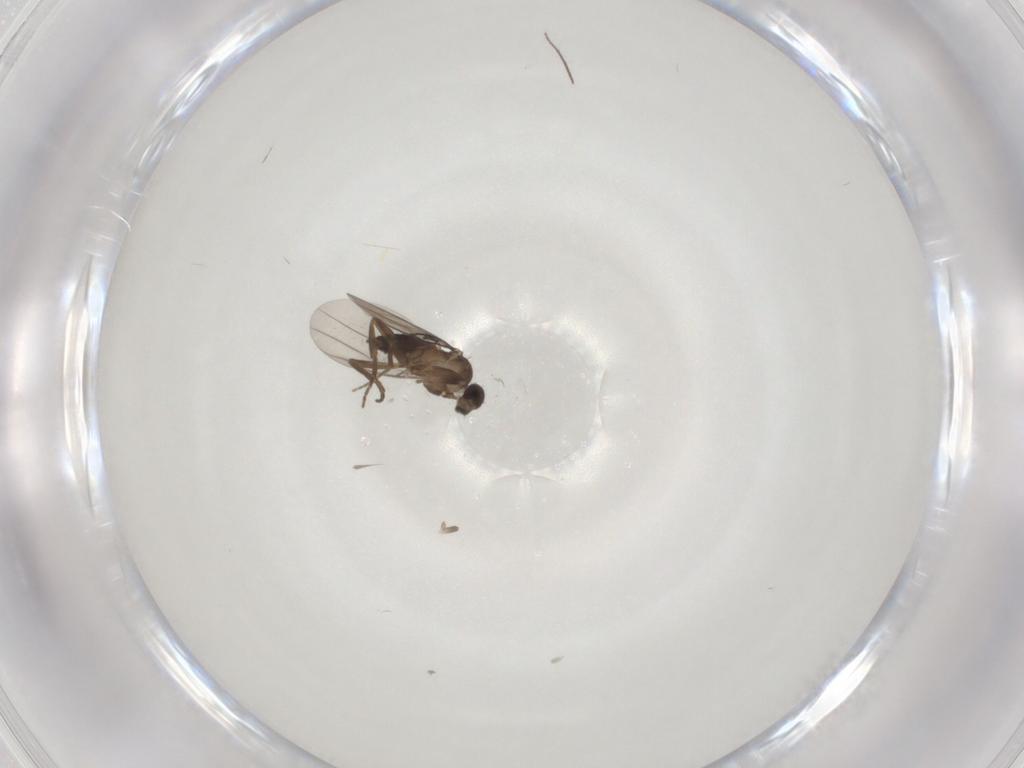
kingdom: Animalia
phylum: Arthropoda
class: Insecta
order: Diptera
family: Phoridae
